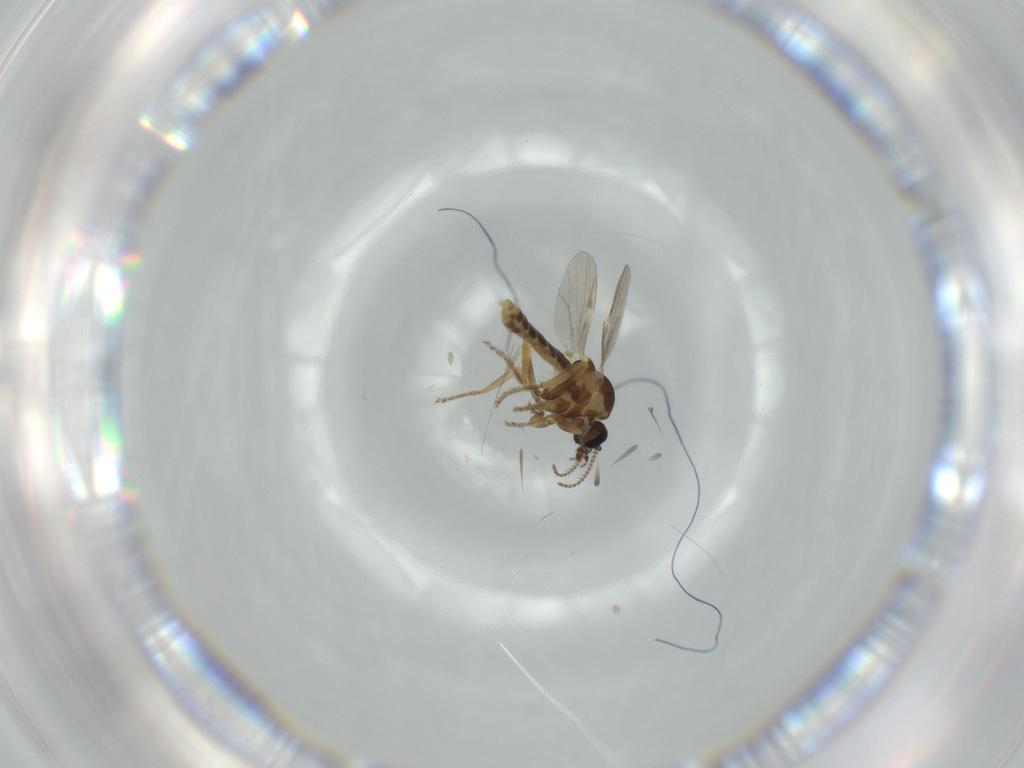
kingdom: Animalia
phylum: Arthropoda
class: Insecta
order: Diptera
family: Ceratopogonidae
